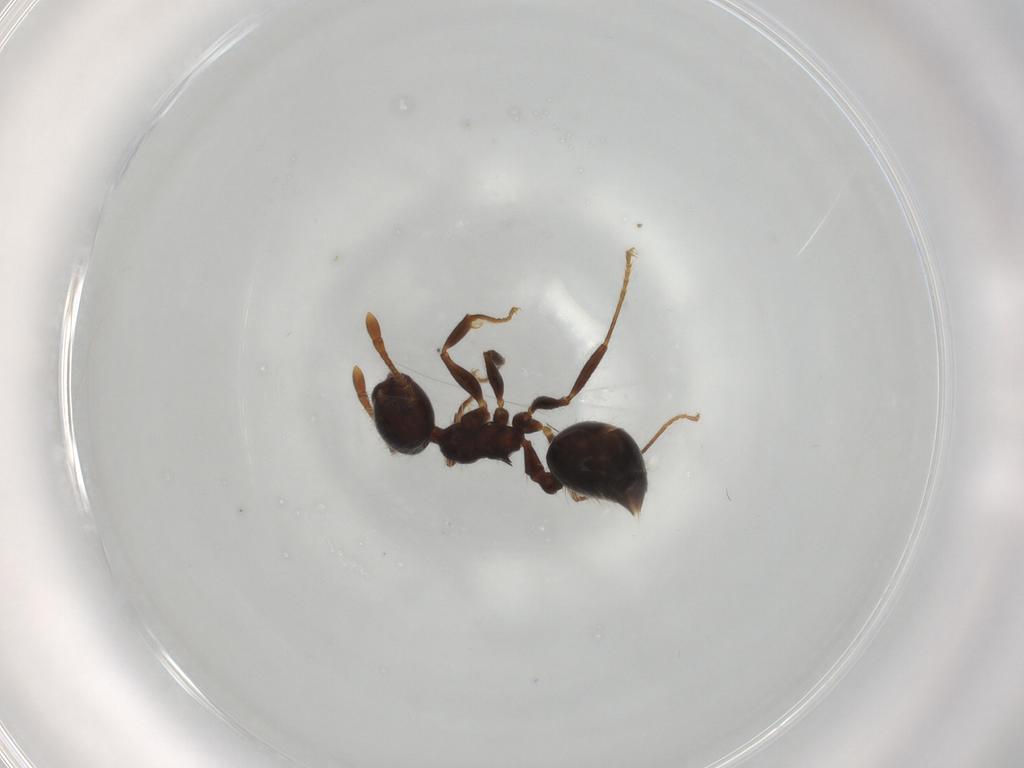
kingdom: Animalia
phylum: Arthropoda
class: Insecta
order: Hymenoptera
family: Formicidae
